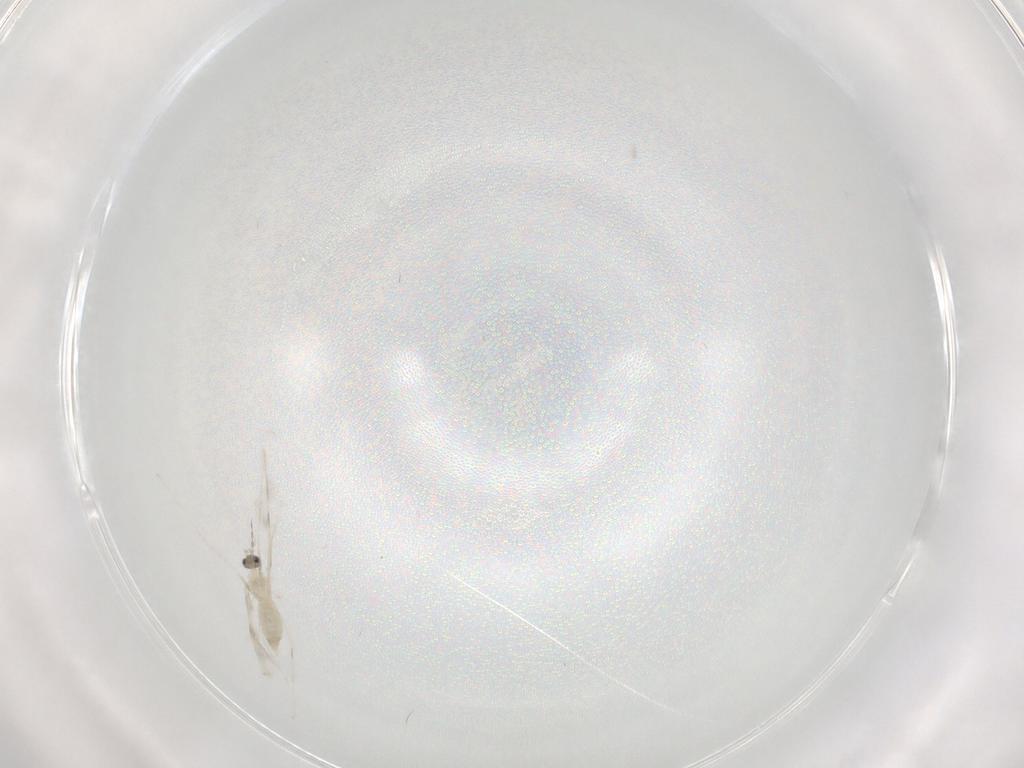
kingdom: Animalia
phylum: Arthropoda
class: Insecta
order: Diptera
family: Cecidomyiidae
